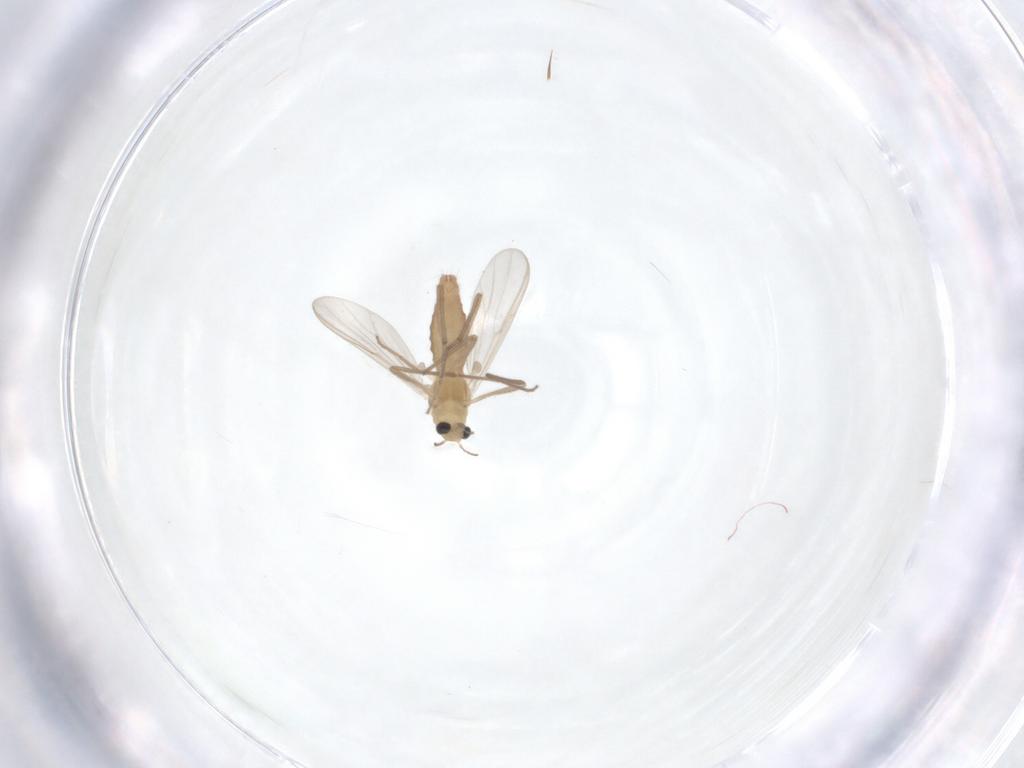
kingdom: Animalia
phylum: Arthropoda
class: Insecta
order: Diptera
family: Chironomidae
